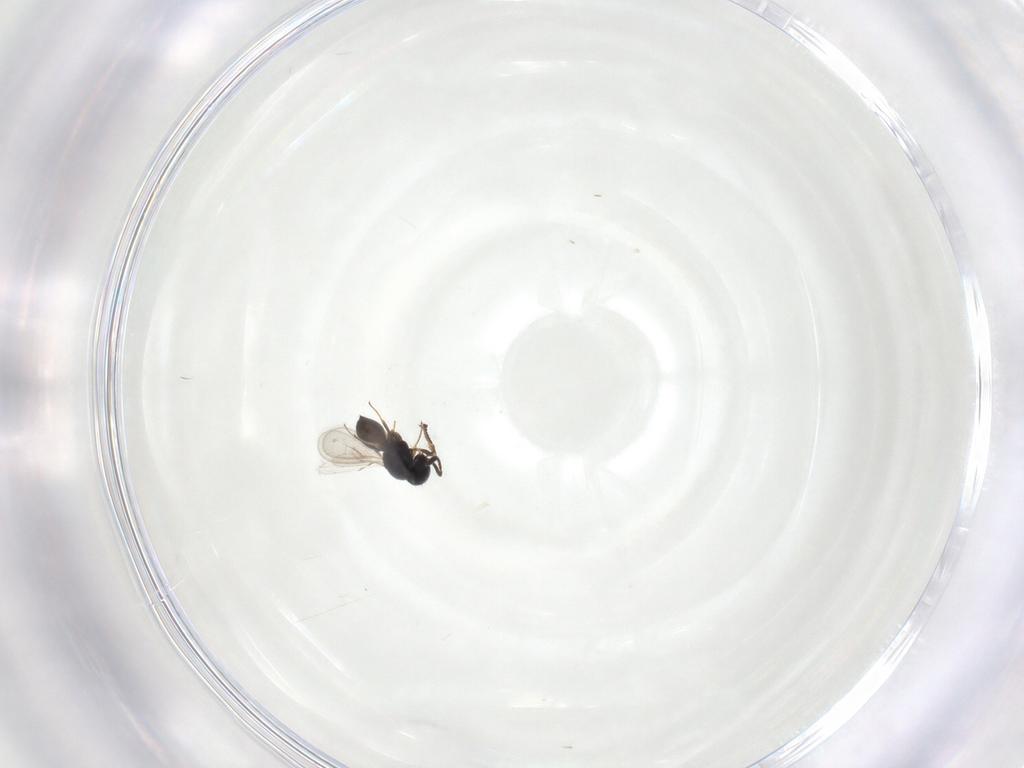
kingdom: Animalia
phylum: Arthropoda
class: Insecta
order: Hymenoptera
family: Scelionidae
